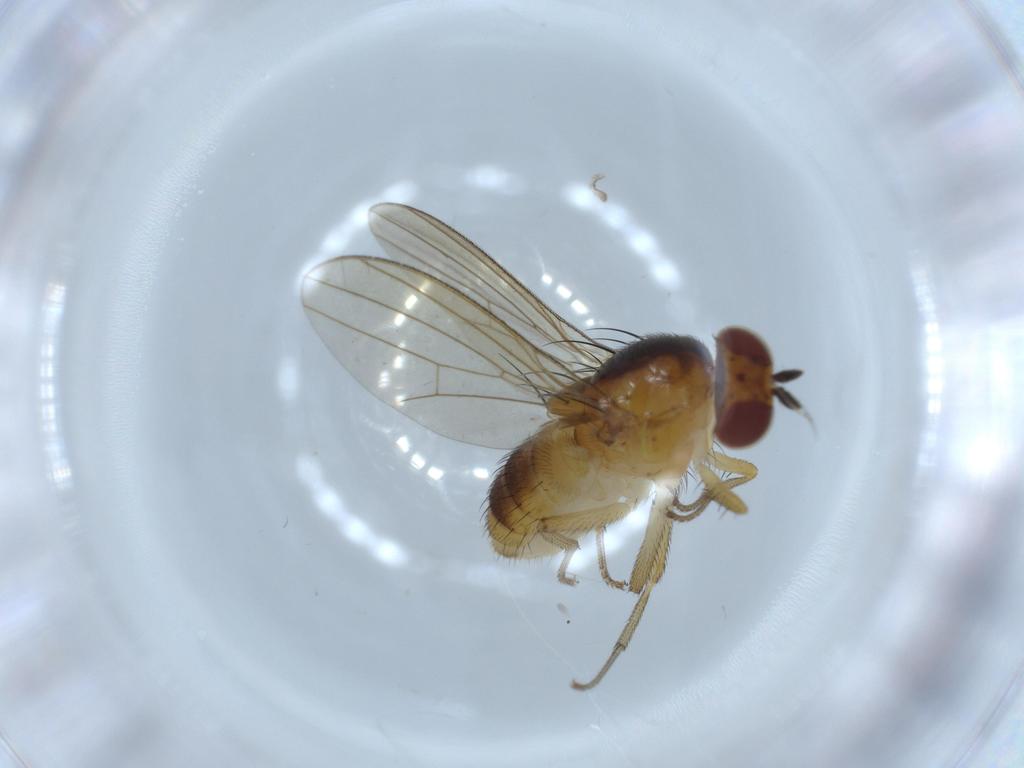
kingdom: Animalia
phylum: Arthropoda
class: Insecta
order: Diptera
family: Lauxaniidae
